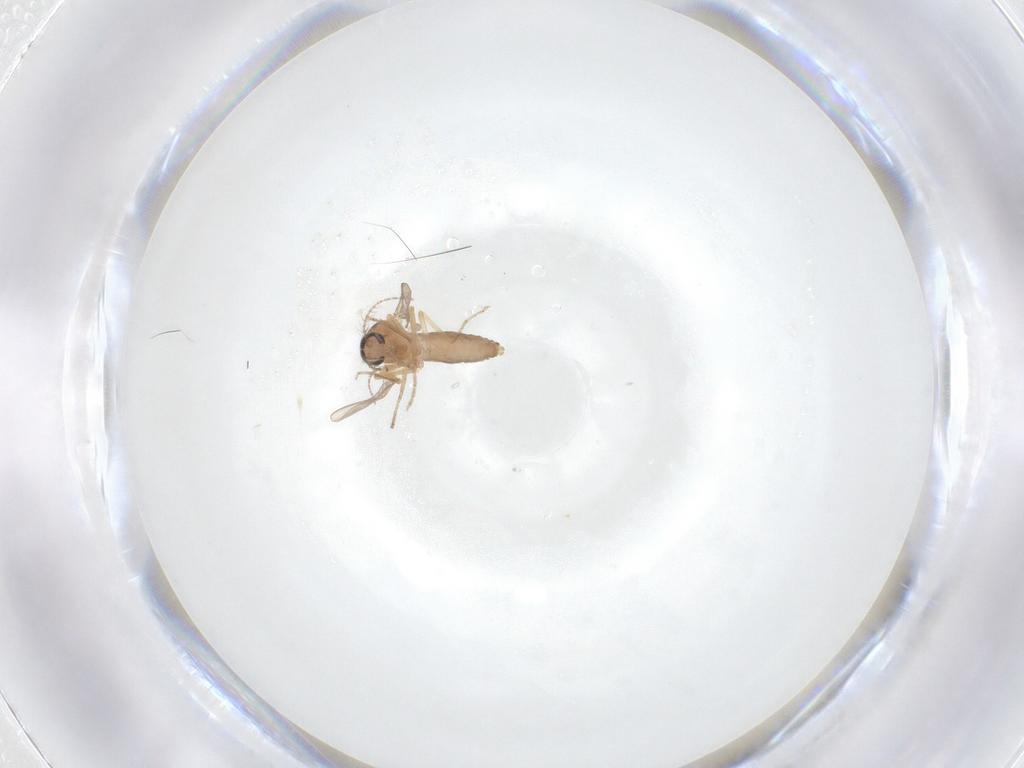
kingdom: Animalia
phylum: Arthropoda
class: Insecta
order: Diptera
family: Ceratopogonidae
